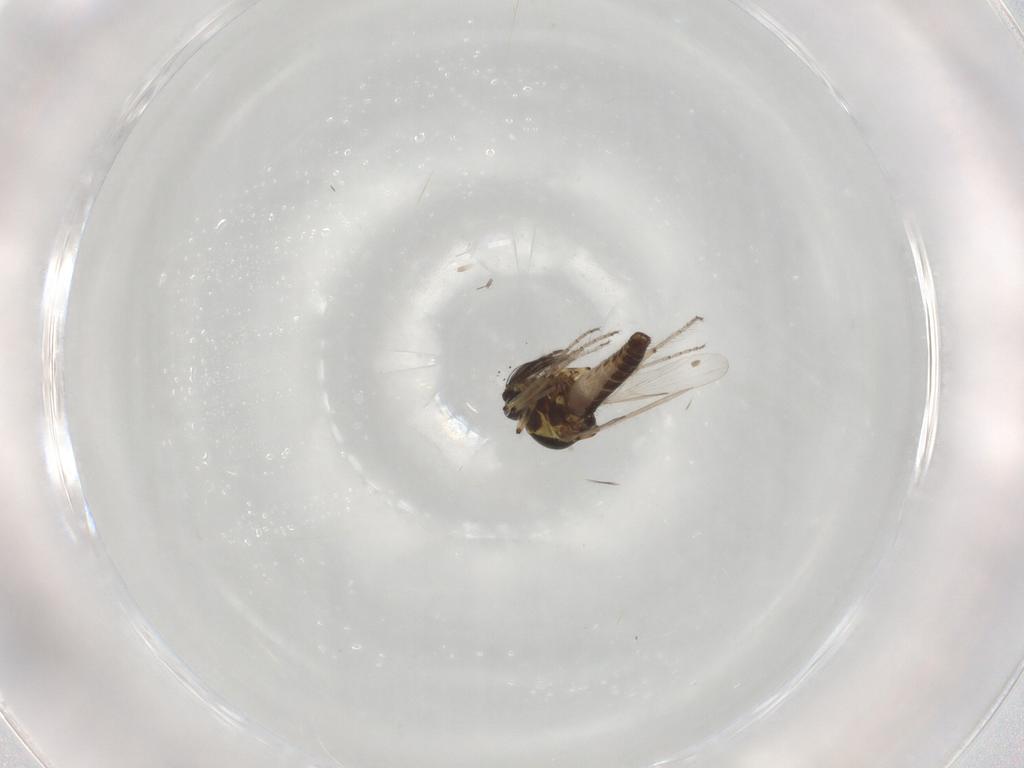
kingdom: Animalia
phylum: Arthropoda
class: Insecta
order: Diptera
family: Ceratopogonidae
